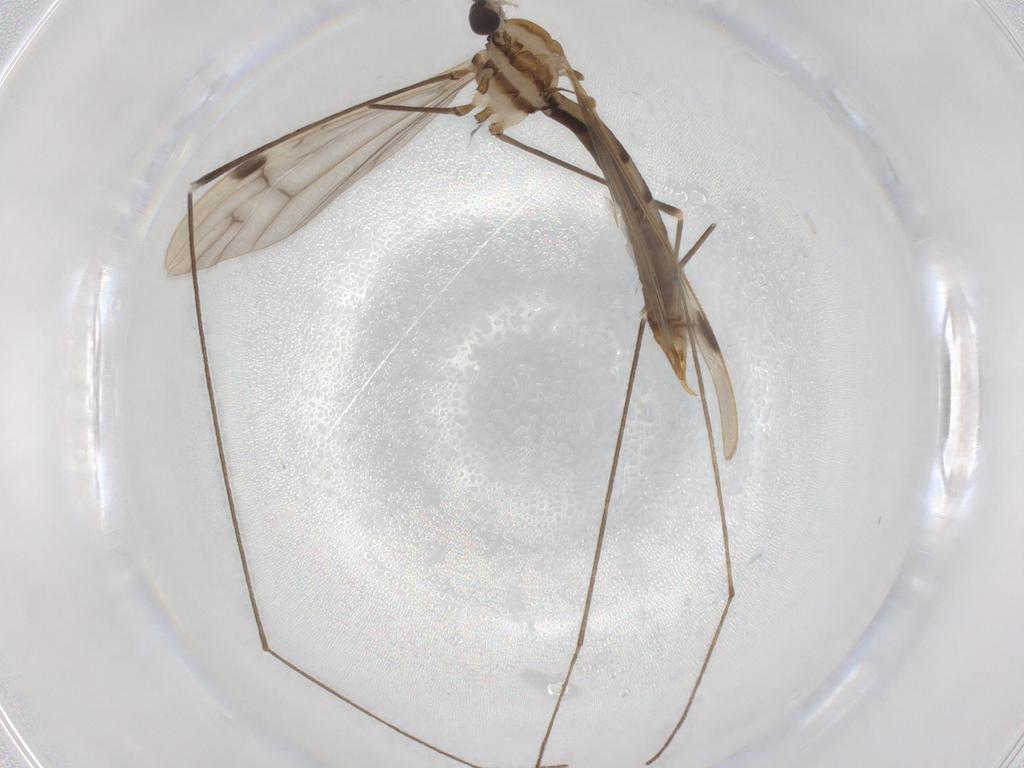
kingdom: Animalia
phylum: Arthropoda
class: Insecta
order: Diptera
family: Limoniidae
